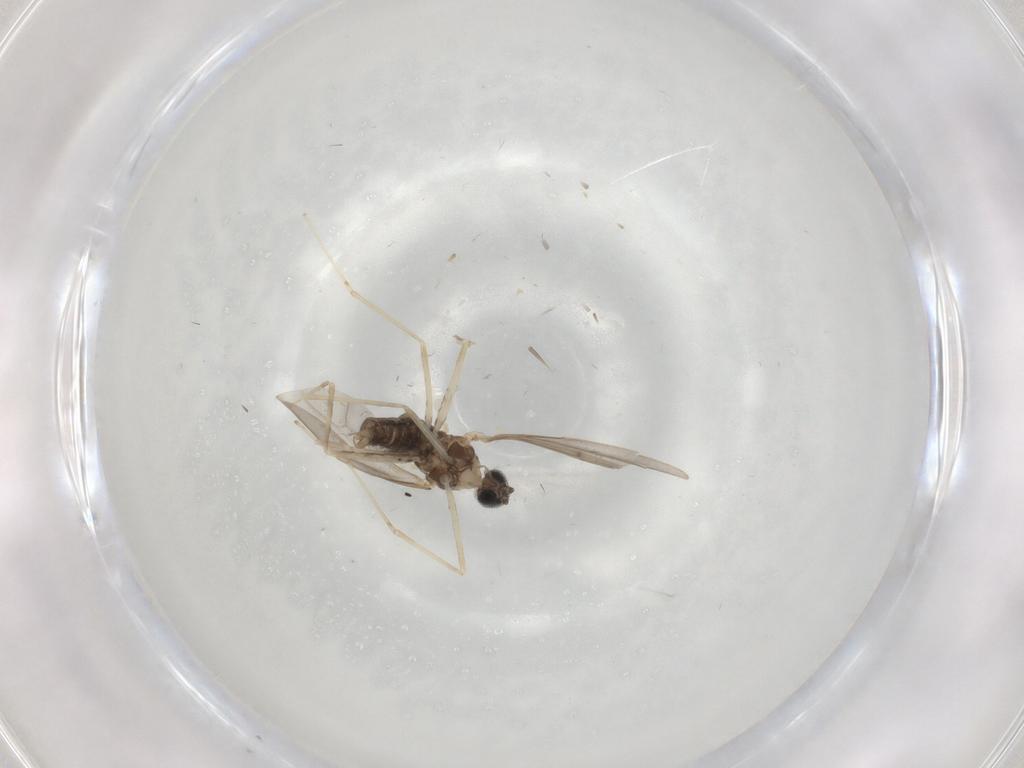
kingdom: Animalia
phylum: Arthropoda
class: Insecta
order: Diptera
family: Cecidomyiidae
